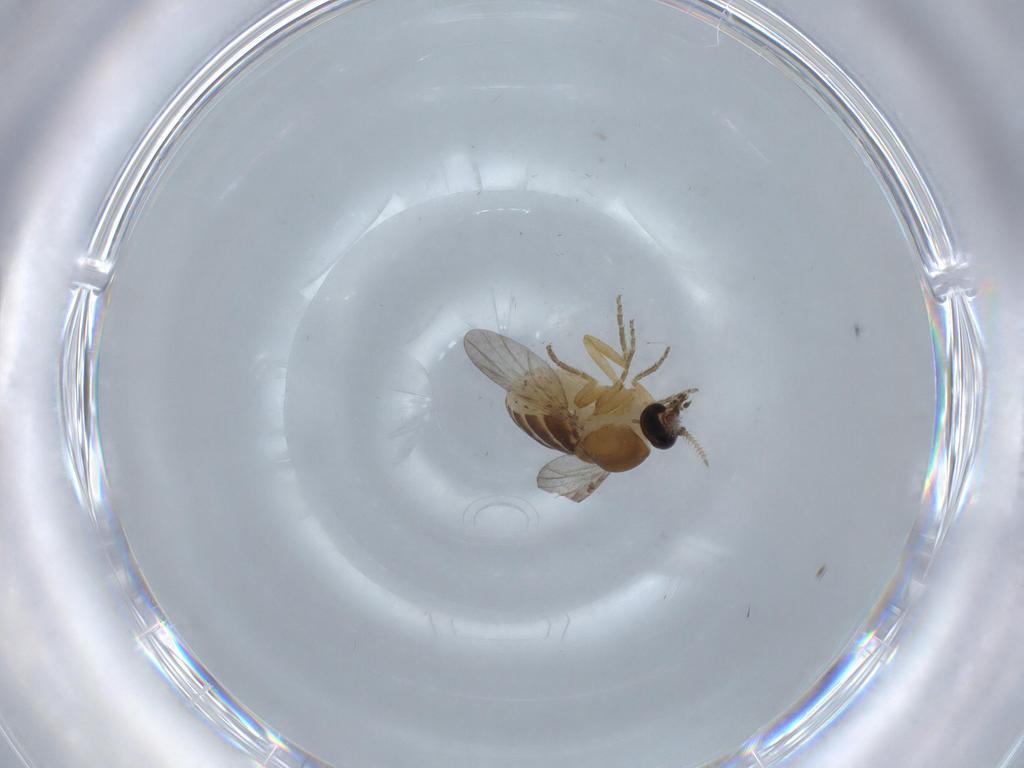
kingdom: Animalia
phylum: Arthropoda
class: Insecta
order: Diptera
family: Ceratopogonidae
